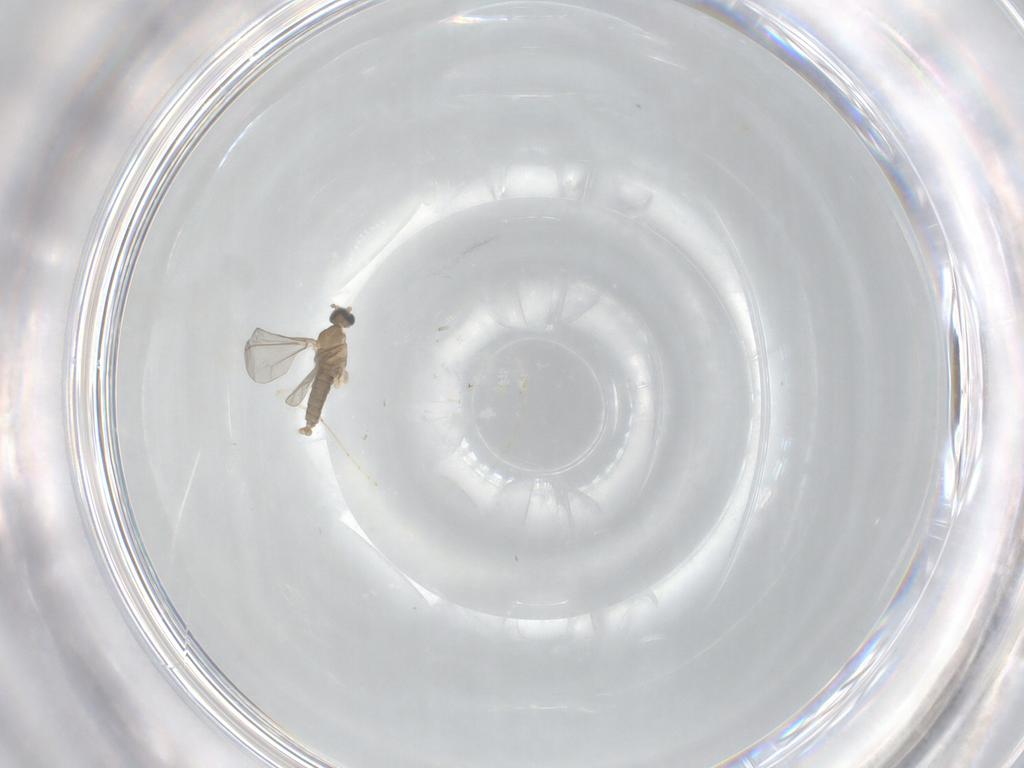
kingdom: Animalia
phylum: Arthropoda
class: Insecta
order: Diptera
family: Cecidomyiidae
